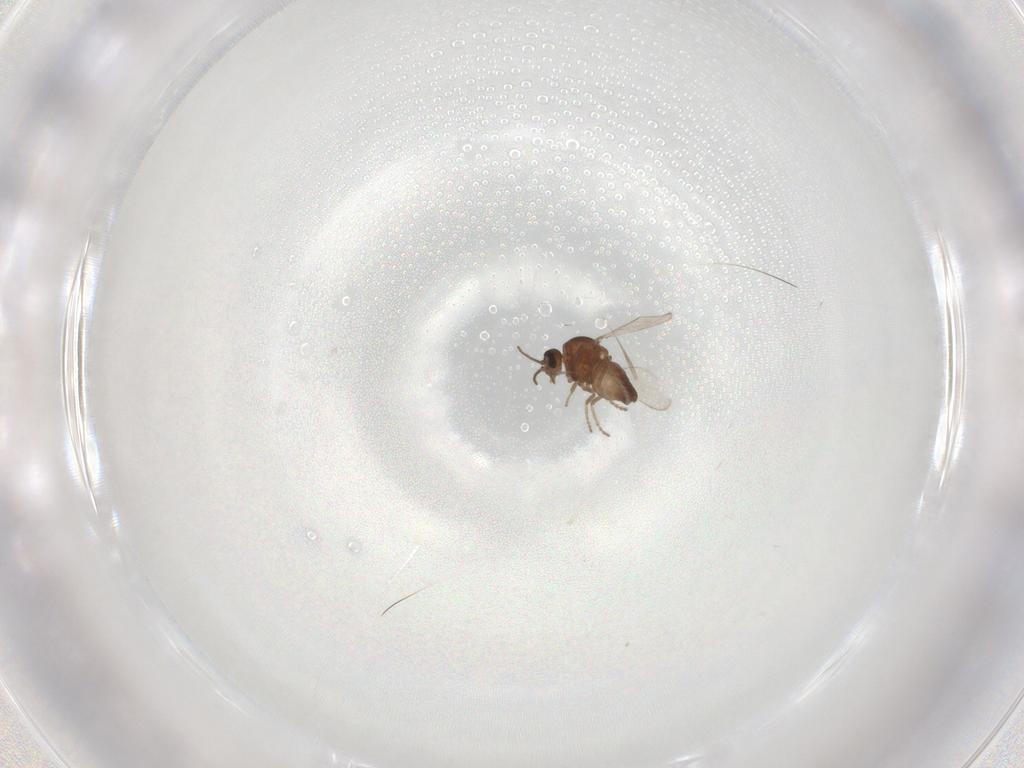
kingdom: Animalia
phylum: Arthropoda
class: Insecta
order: Diptera
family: Ceratopogonidae
